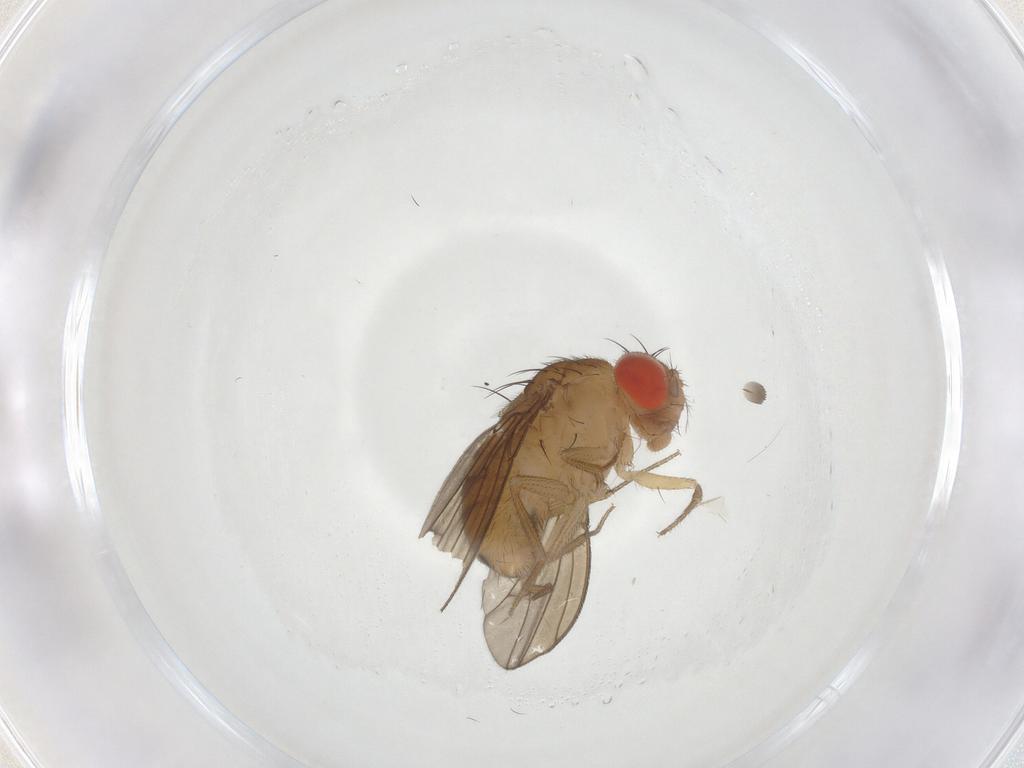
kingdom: Animalia
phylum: Arthropoda
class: Insecta
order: Diptera
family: Drosophilidae
